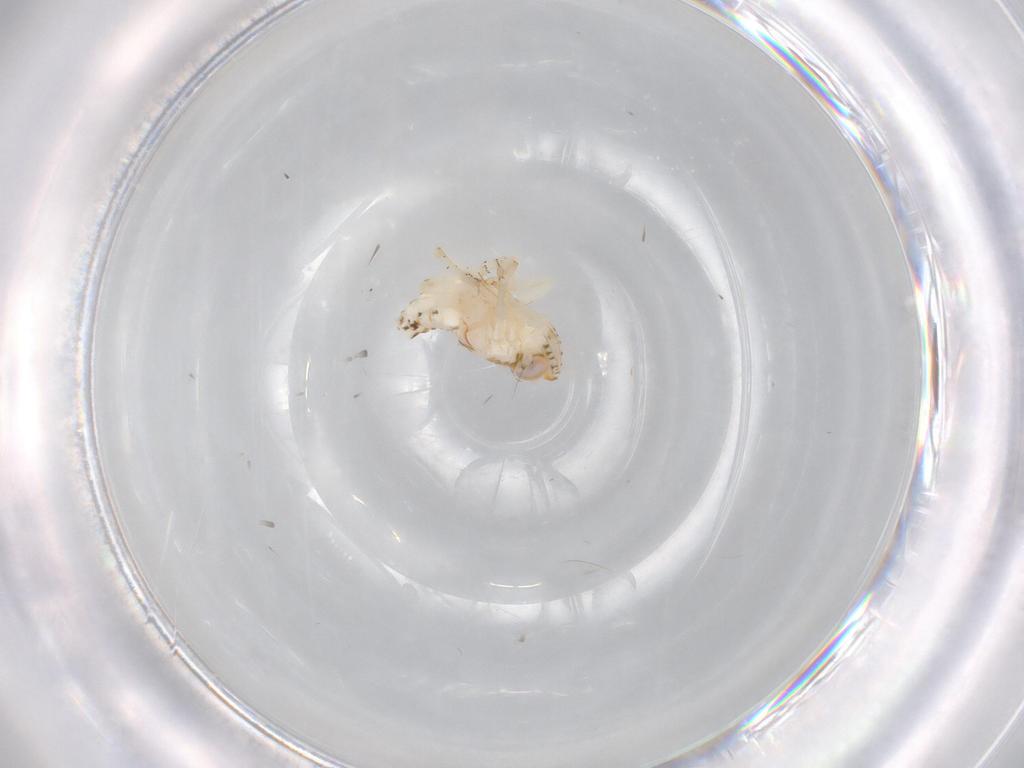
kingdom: Animalia
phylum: Arthropoda
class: Insecta
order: Hemiptera
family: Nogodinidae
